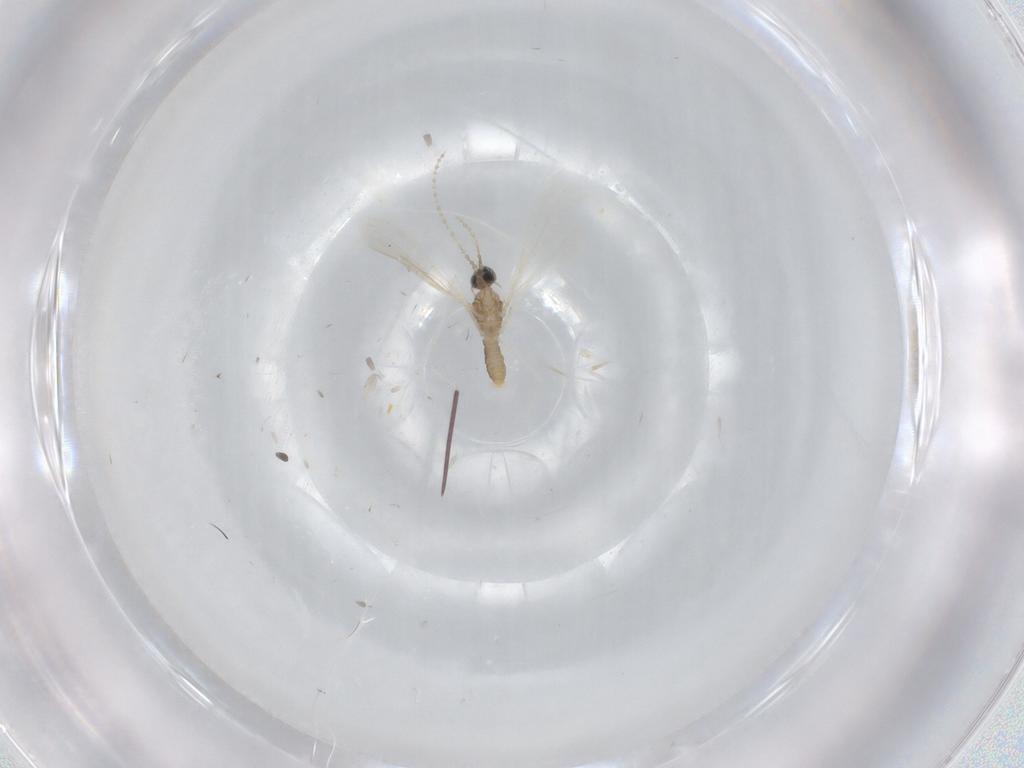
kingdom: Animalia
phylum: Arthropoda
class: Insecta
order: Diptera
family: Cecidomyiidae
